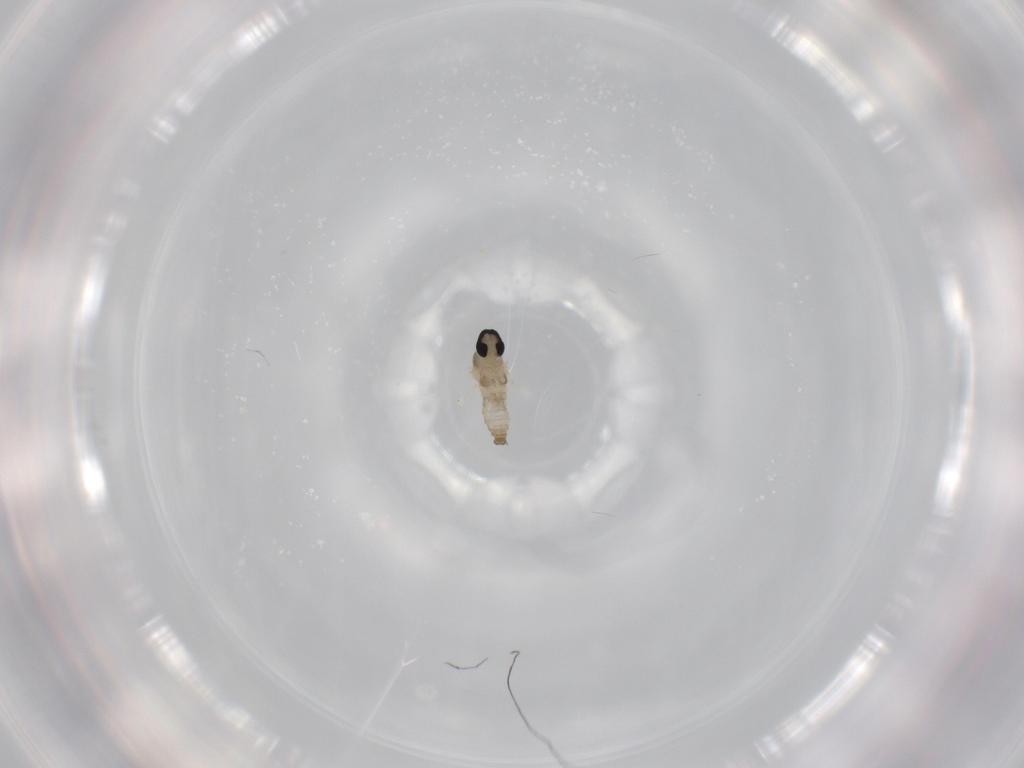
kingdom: Animalia
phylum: Arthropoda
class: Insecta
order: Diptera
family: Cecidomyiidae
